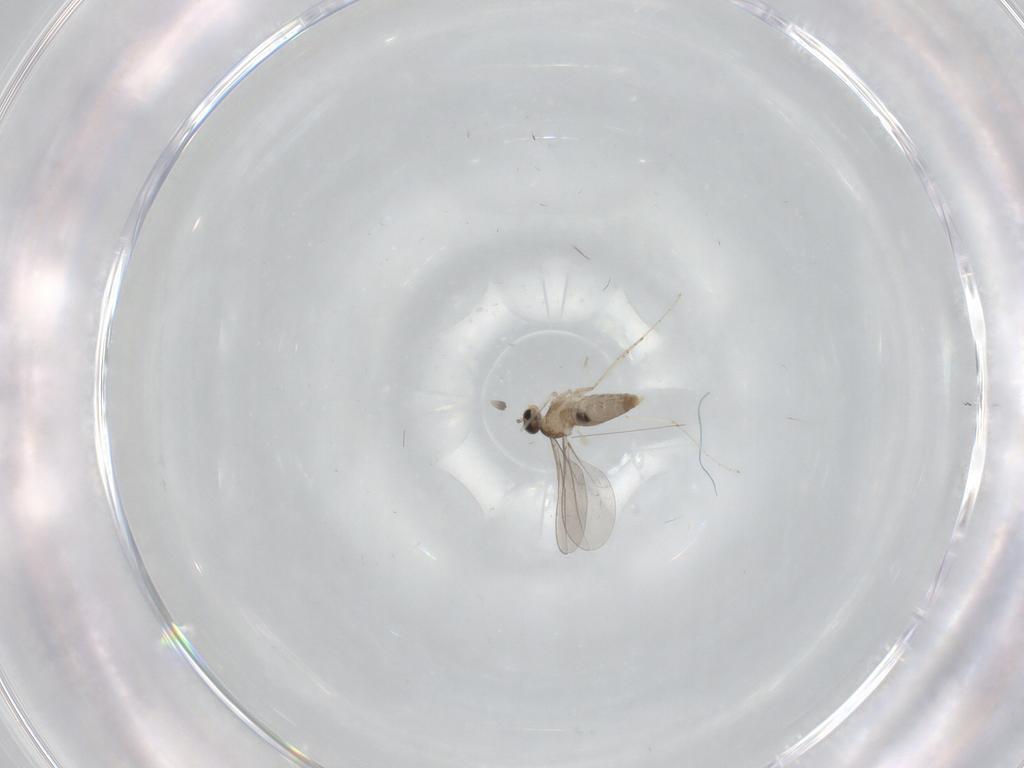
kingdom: Animalia
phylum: Arthropoda
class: Insecta
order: Diptera
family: Cecidomyiidae
